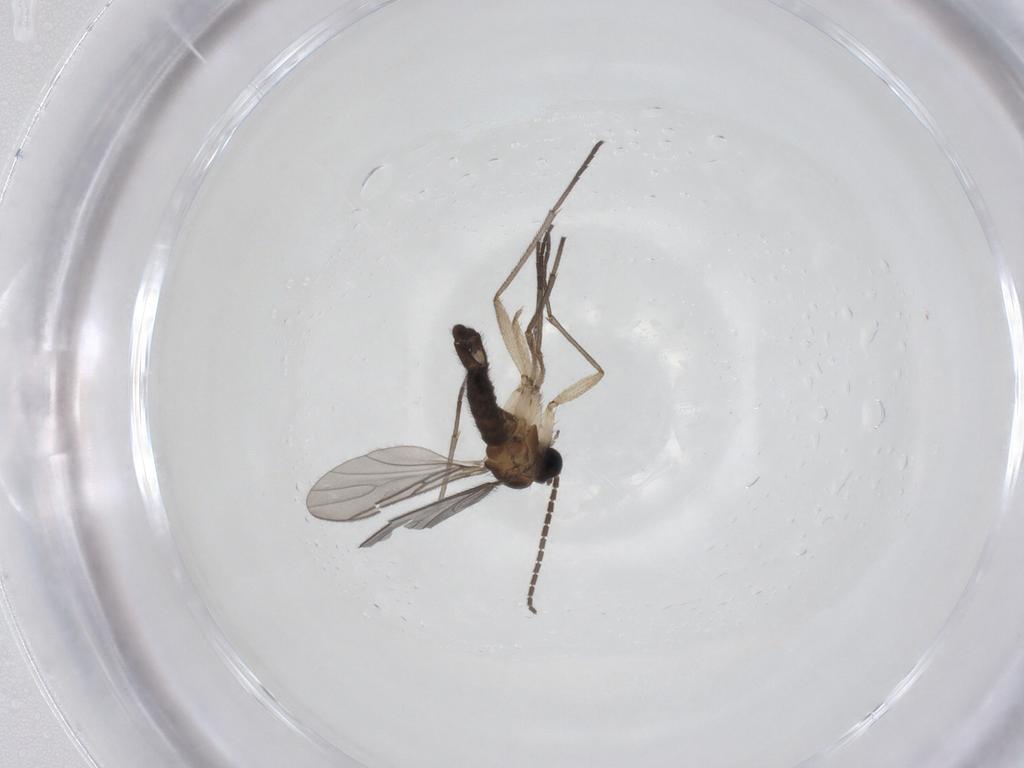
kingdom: Animalia
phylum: Arthropoda
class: Insecta
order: Diptera
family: Sciaridae
